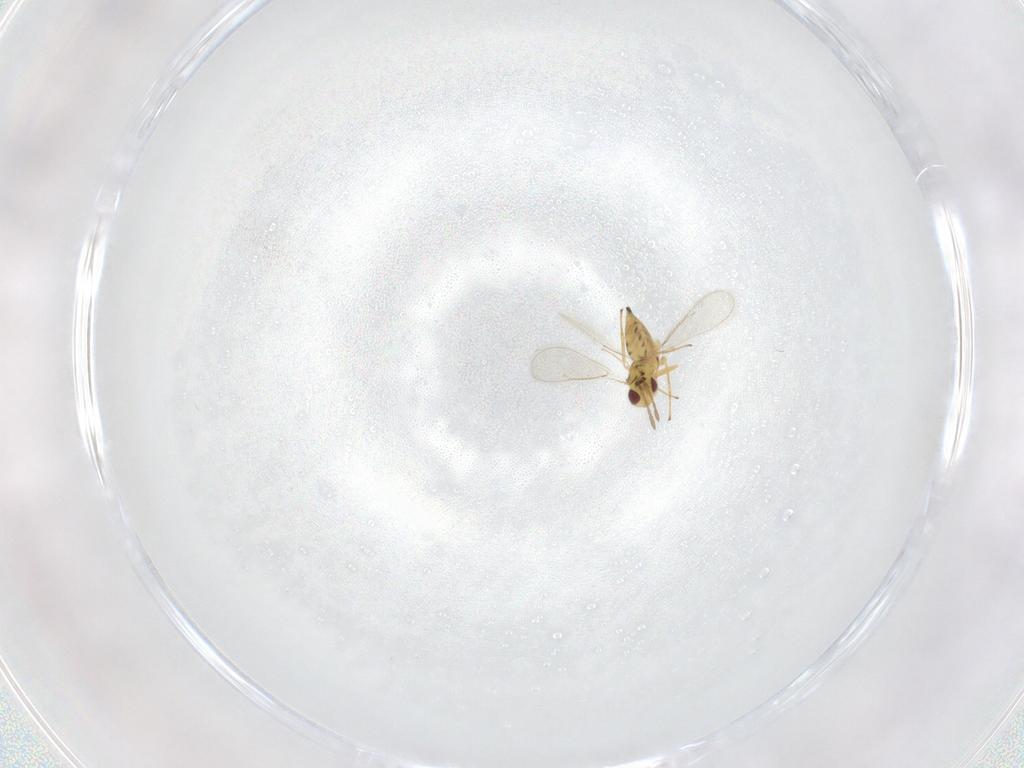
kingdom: Animalia
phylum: Arthropoda
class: Insecta
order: Hymenoptera
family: Eulophidae
